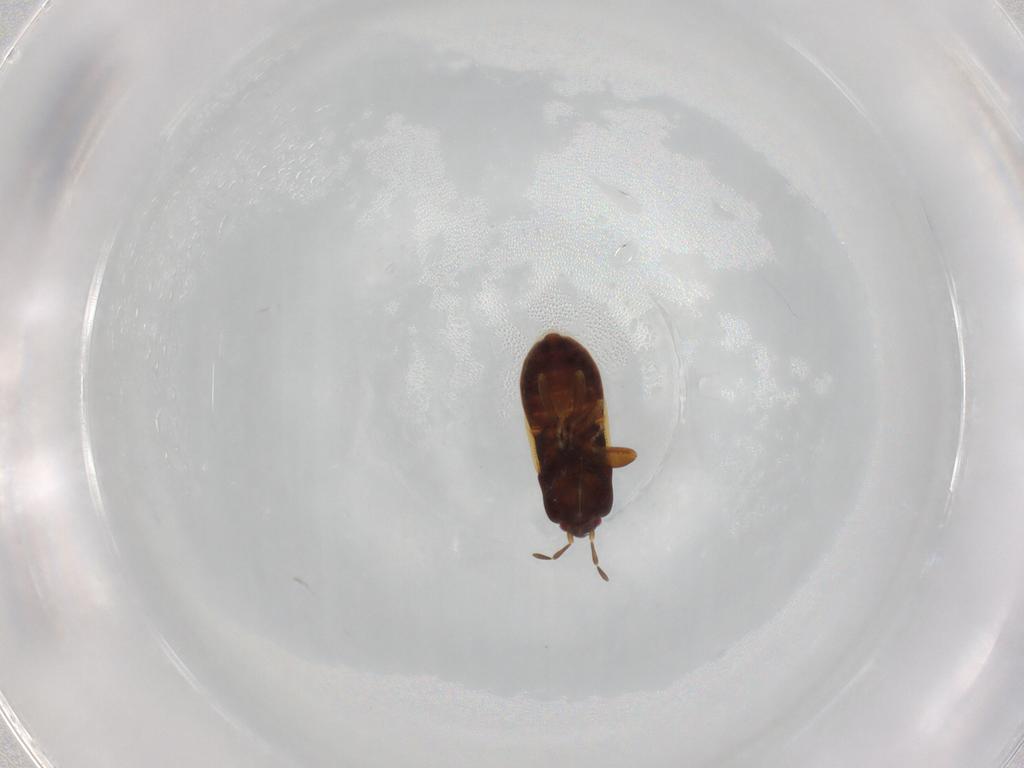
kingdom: Animalia
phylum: Arthropoda
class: Insecta
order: Hemiptera
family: Rhyparochromidae
